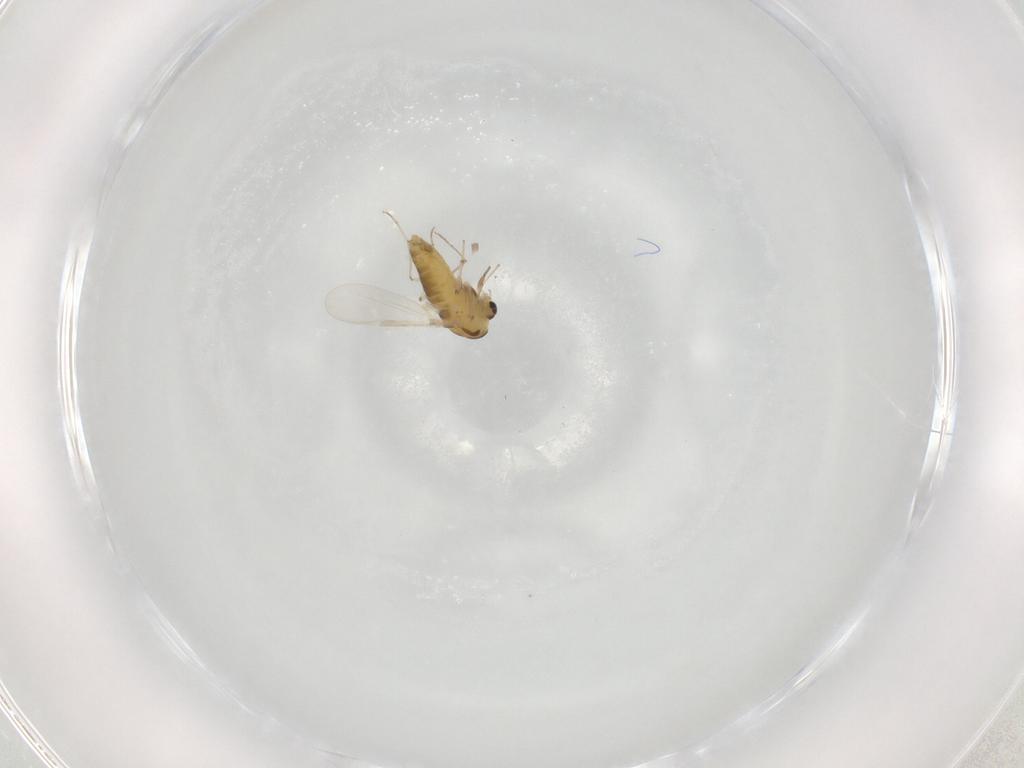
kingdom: Animalia
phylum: Arthropoda
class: Insecta
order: Diptera
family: Chironomidae
